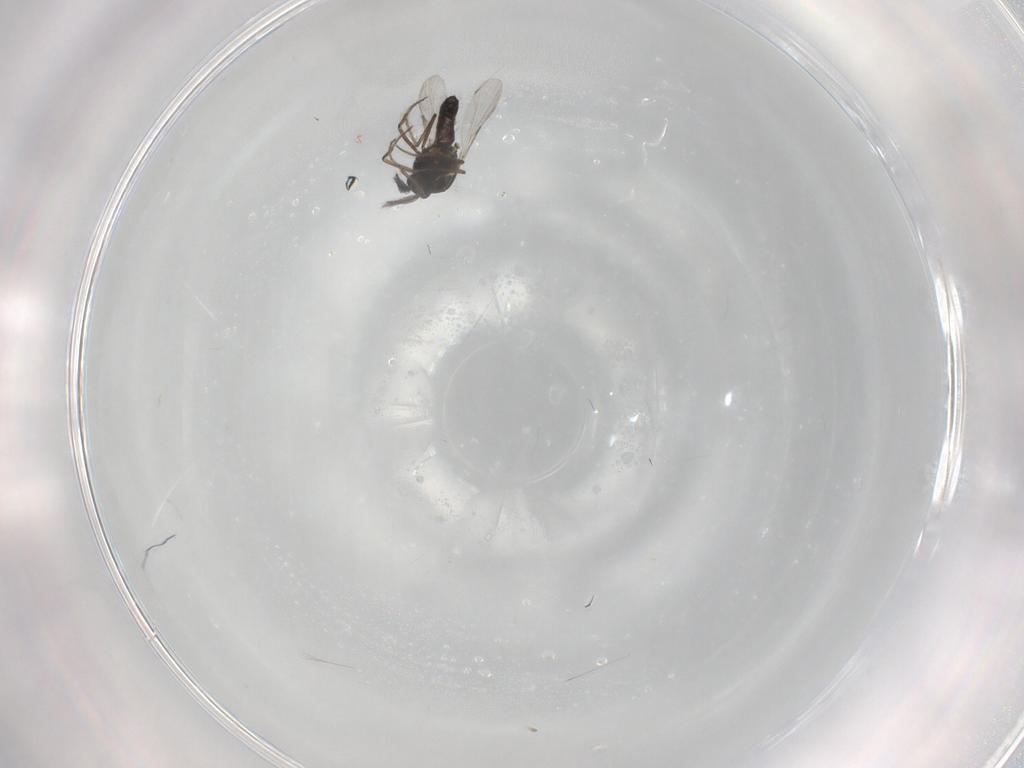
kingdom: Animalia
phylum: Arthropoda
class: Insecta
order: Diptera
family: Ceratopogonidae
